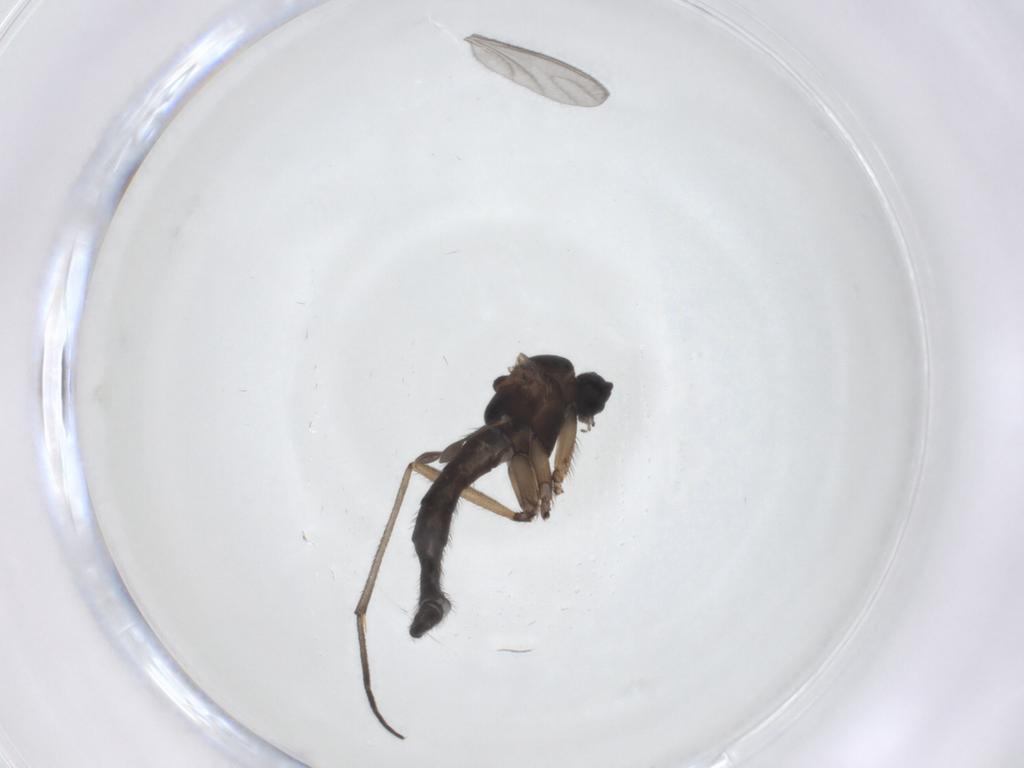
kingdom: Animalia
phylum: Arthropoda
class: Insecta
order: Diptera
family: Sciaridae
